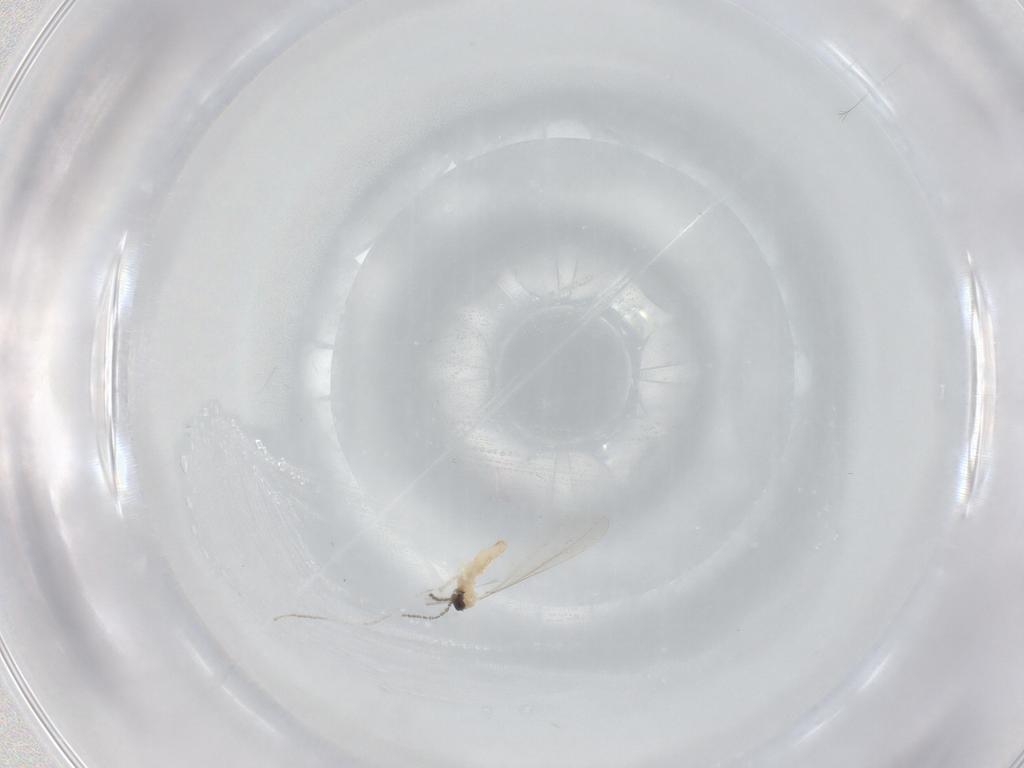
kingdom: Animalia
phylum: Arthropoda
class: Insecta
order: Diptera
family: Cecidomyiidae
